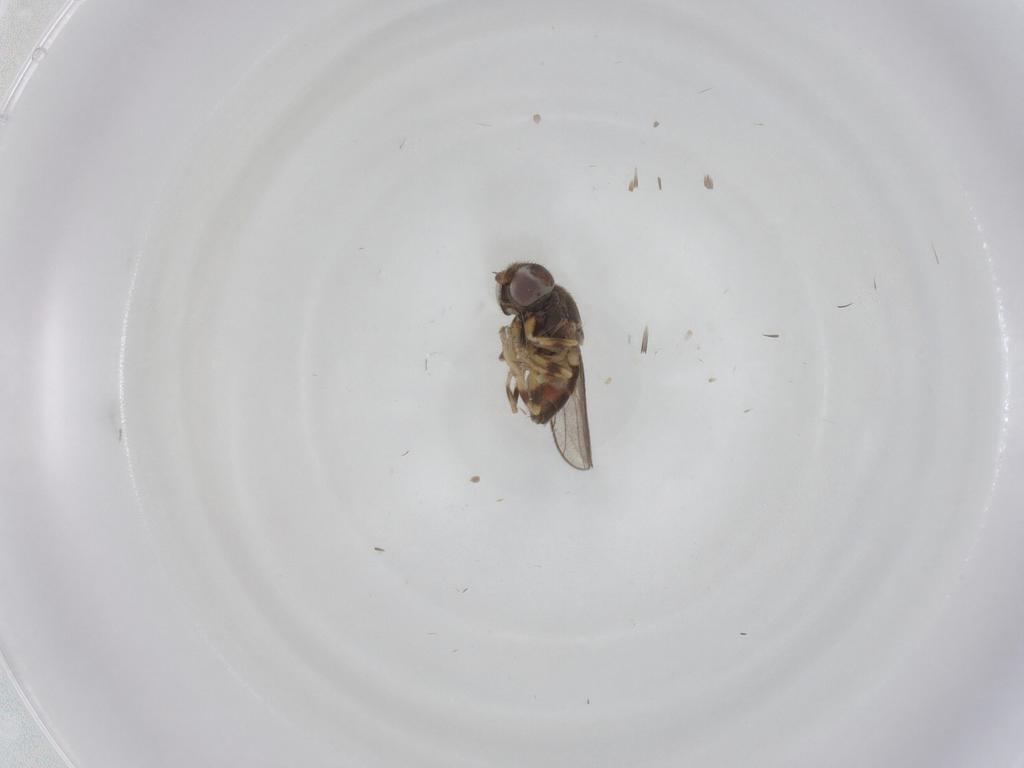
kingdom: Animalia
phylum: Arthropoda
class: Insecta
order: Diptera
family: Chloropidae
